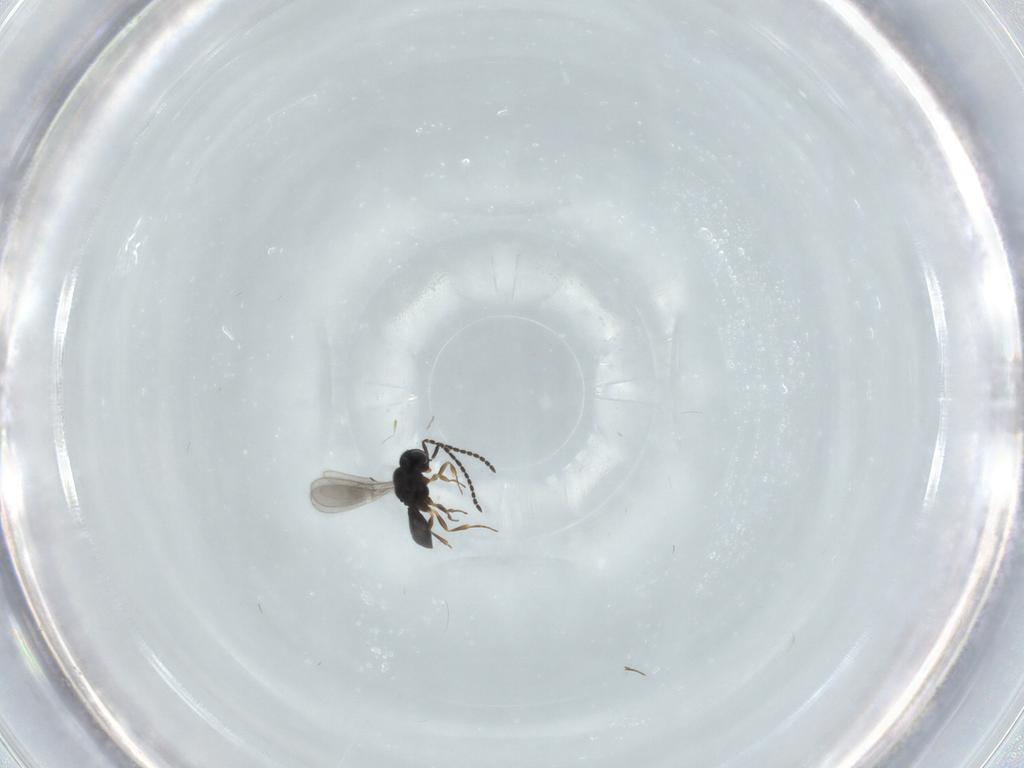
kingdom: Animalia
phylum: Arthropoda
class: Insecta
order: Hymenoptera
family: Scelionidae
